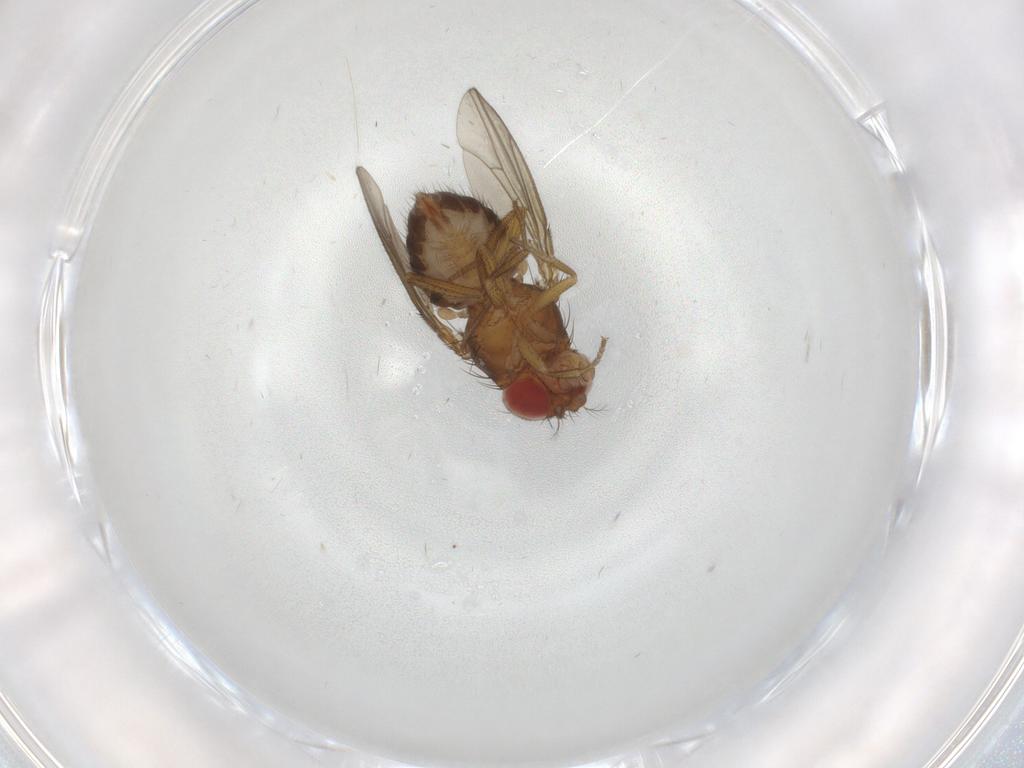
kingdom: Animalia
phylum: Arthropoda
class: Insecta
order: Diptera
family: Drosophilidae
